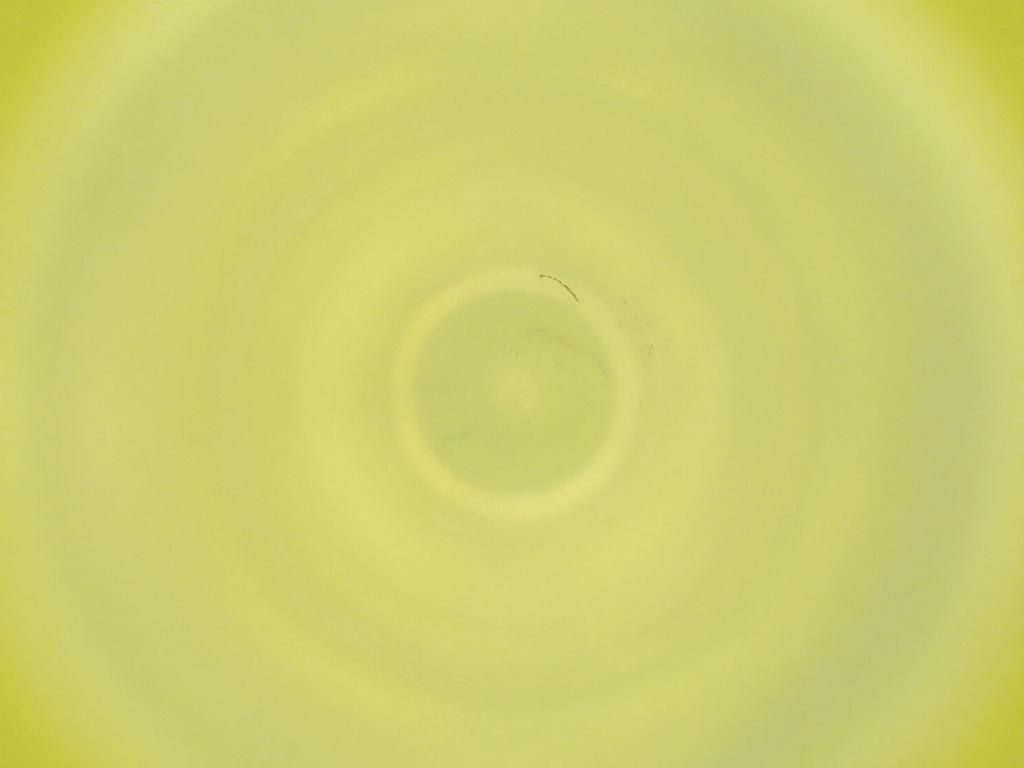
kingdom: Animalia
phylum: Arthropoda
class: Insecta
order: Diptera
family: Cecidomyiidae
